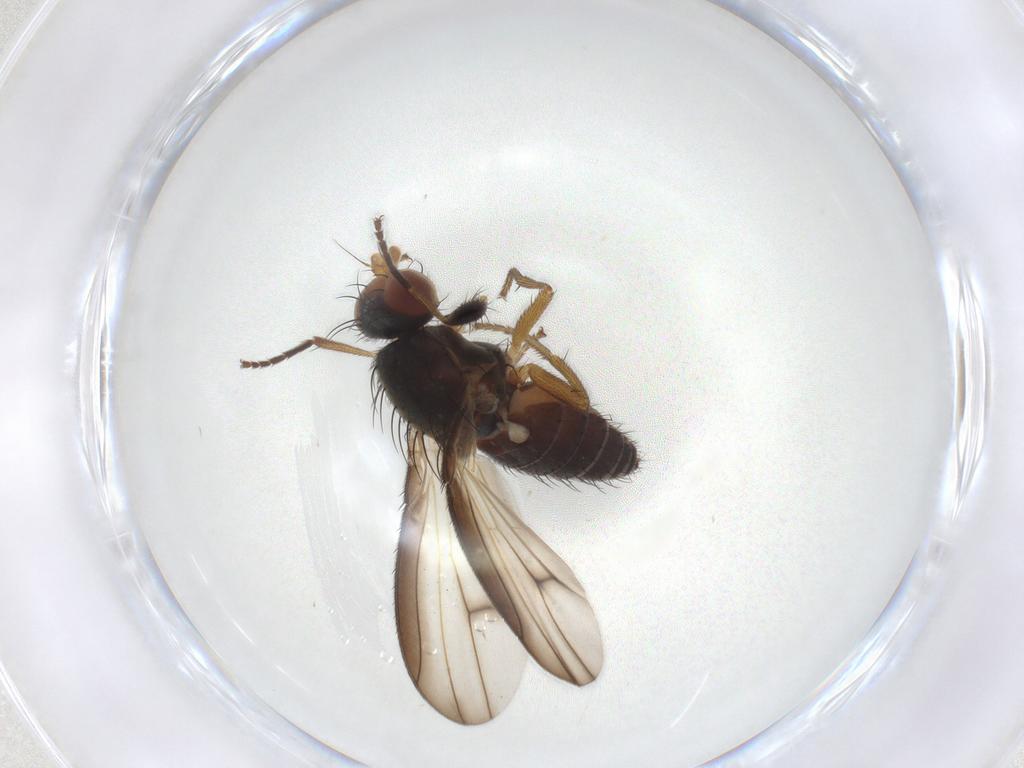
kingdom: Animalia
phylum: Arthropoda
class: Insecta
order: Diptera
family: Heleomyzidae
